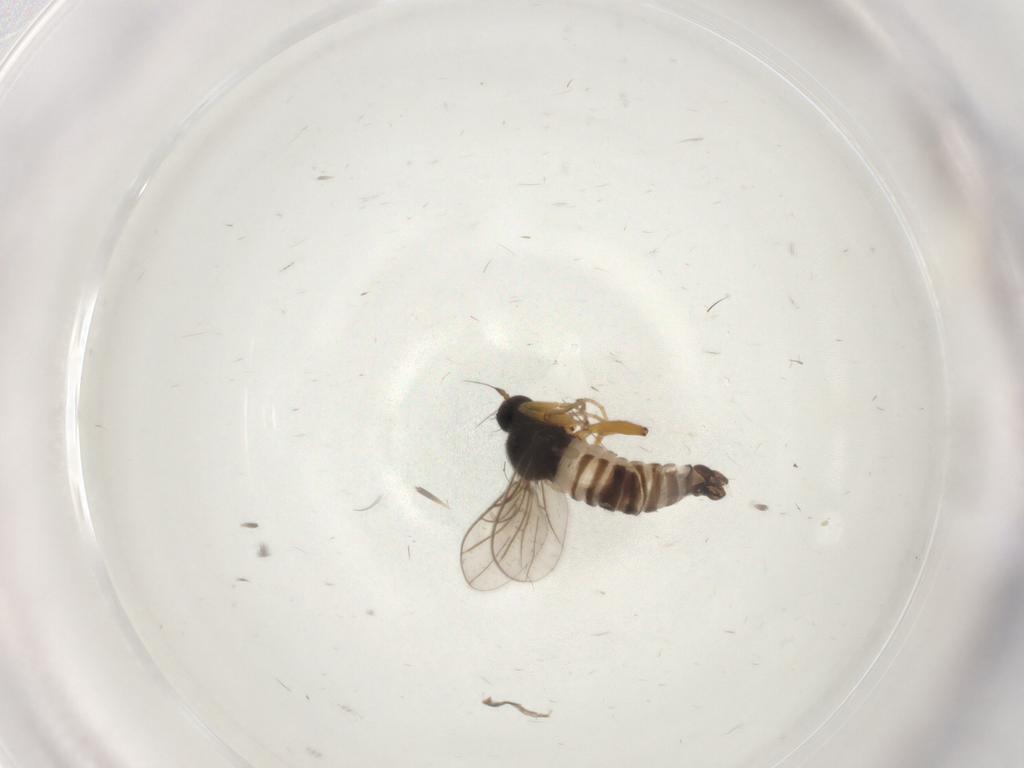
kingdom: Animalia
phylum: Arthropoda
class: Insecta
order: Diptera
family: Hybotidae
